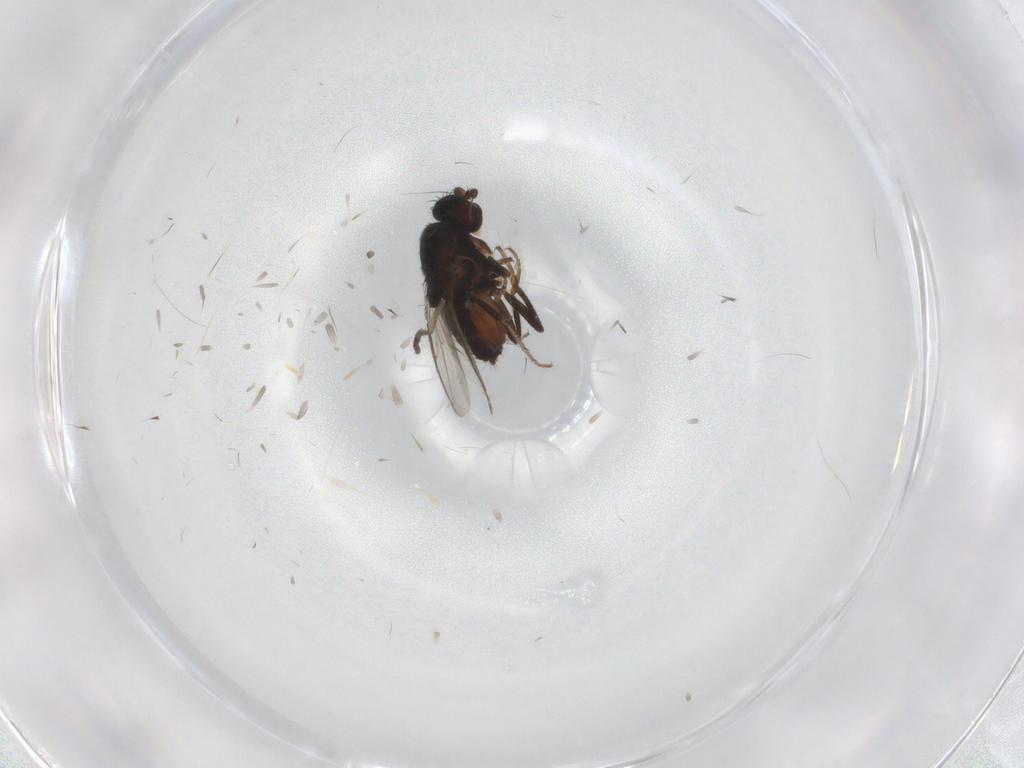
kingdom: Animalia
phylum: Arthropoda
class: Insecta
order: Diptera
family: Sphaeroceridae
